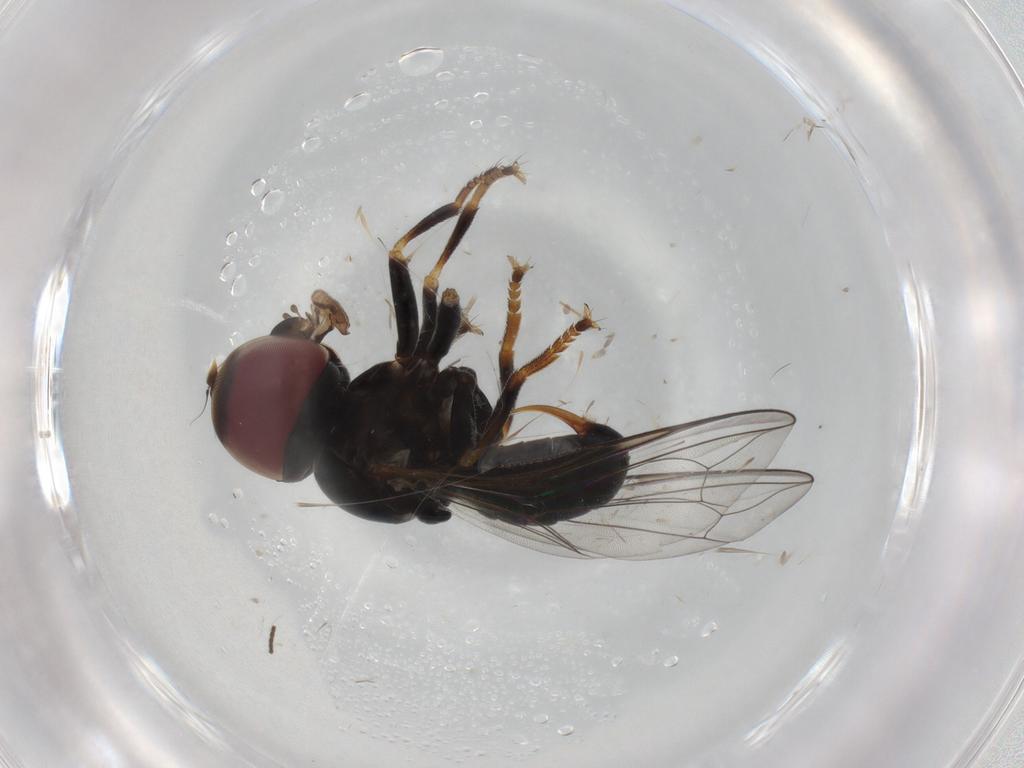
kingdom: Animalia
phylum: Arthropoda
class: Insecta
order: Diptera
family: Pipunculidae
